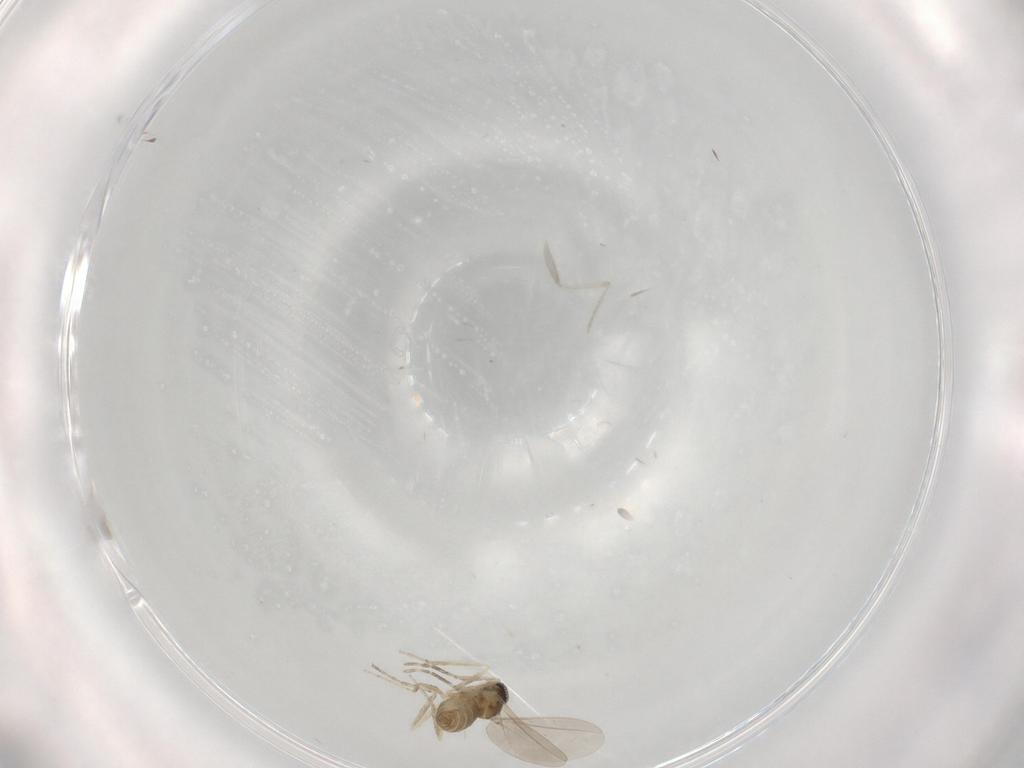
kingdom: Animalia
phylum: Arthropoda
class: Insecta
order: Diptera
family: Cecidomyiidae
